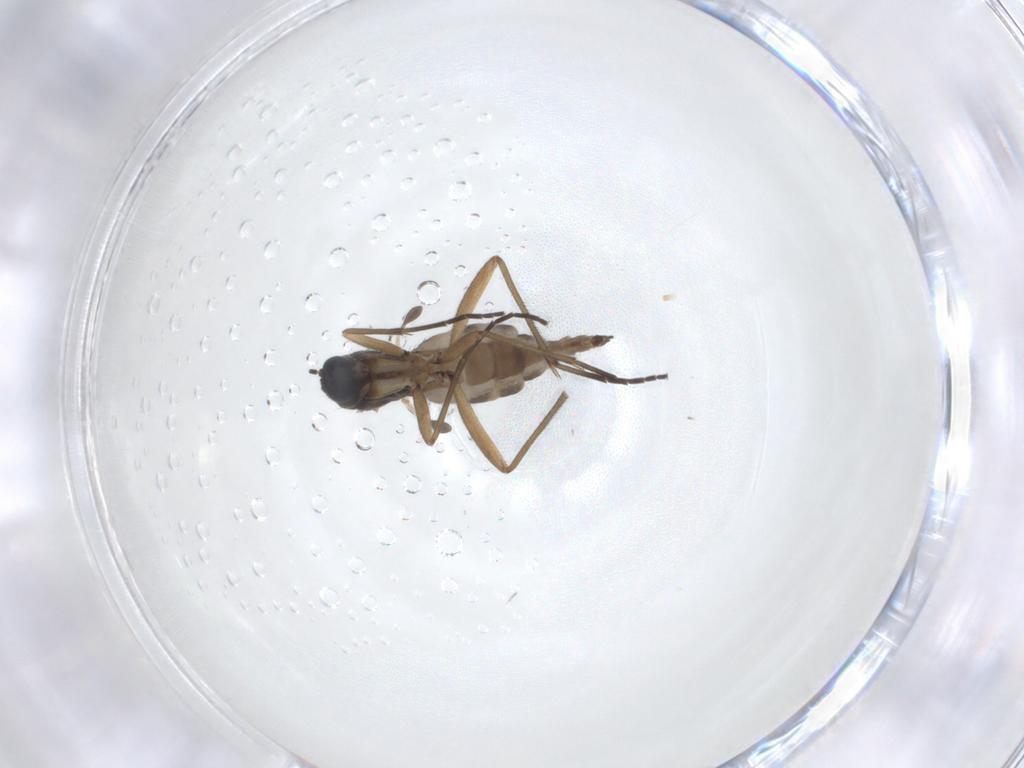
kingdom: Animalia
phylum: Arthropoda
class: Insecta
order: Diptera
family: Sciaridae
